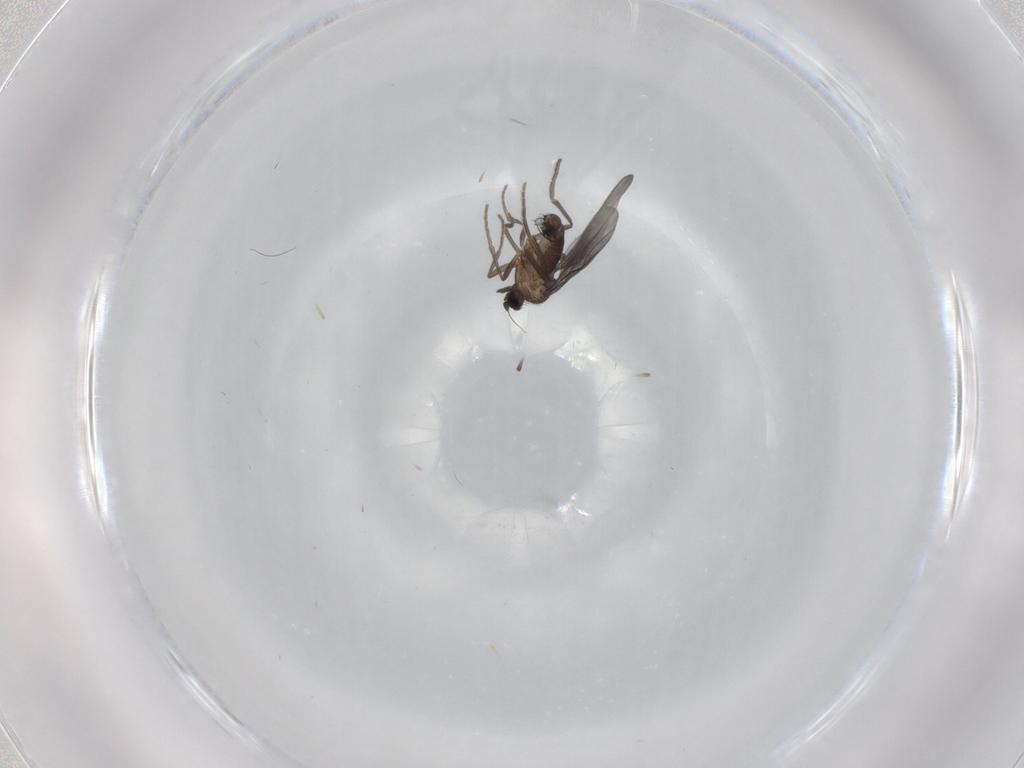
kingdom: Animalia
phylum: Arthropoda
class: Insecta
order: Diptera
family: Phoridae
